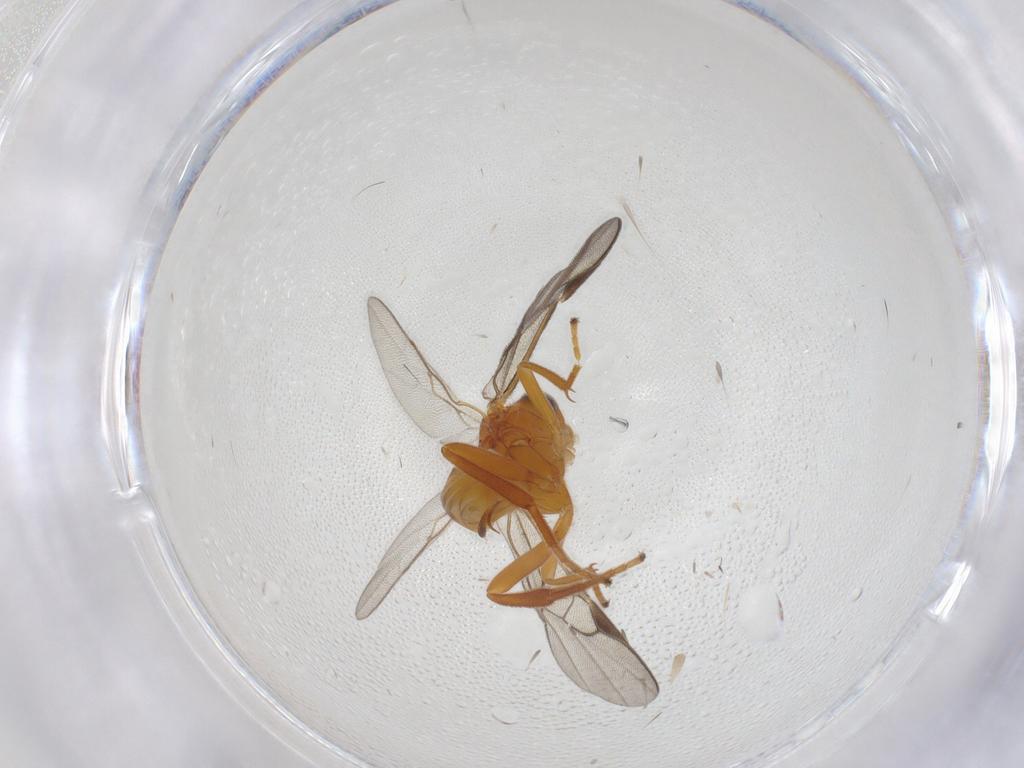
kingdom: Animalia
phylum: Arthropoda
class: Insecta
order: Hymenoptera
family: Braconidae
